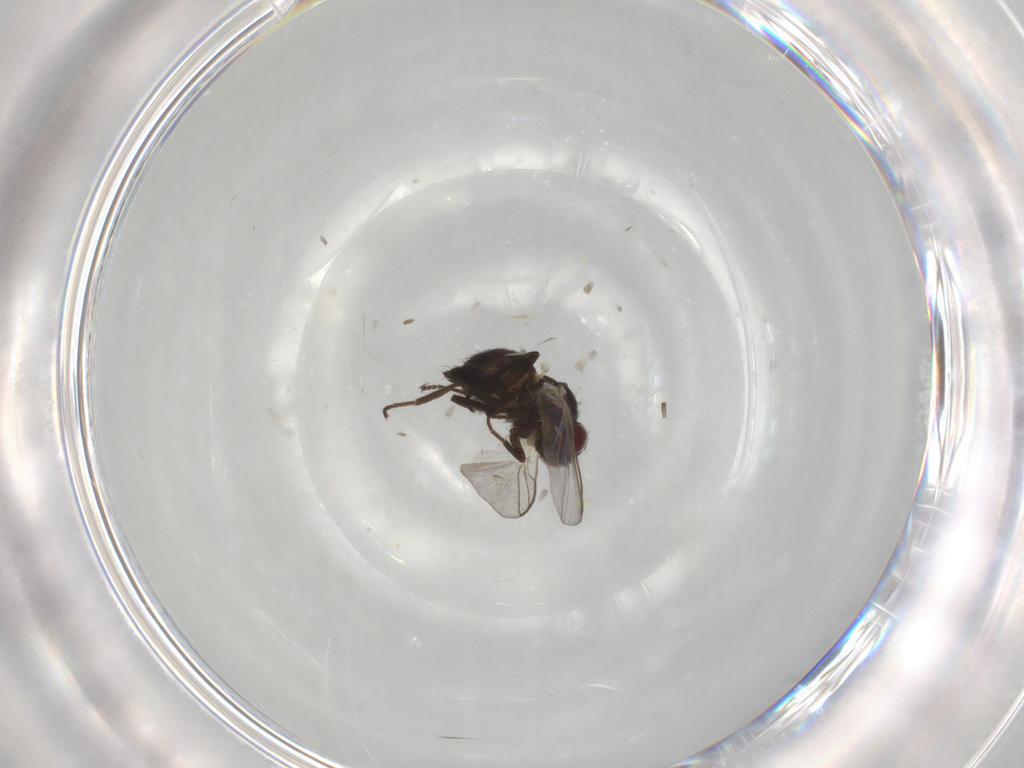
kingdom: Animalia
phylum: Arthropoda
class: Insecta
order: Diptera
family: Agromyzidae
